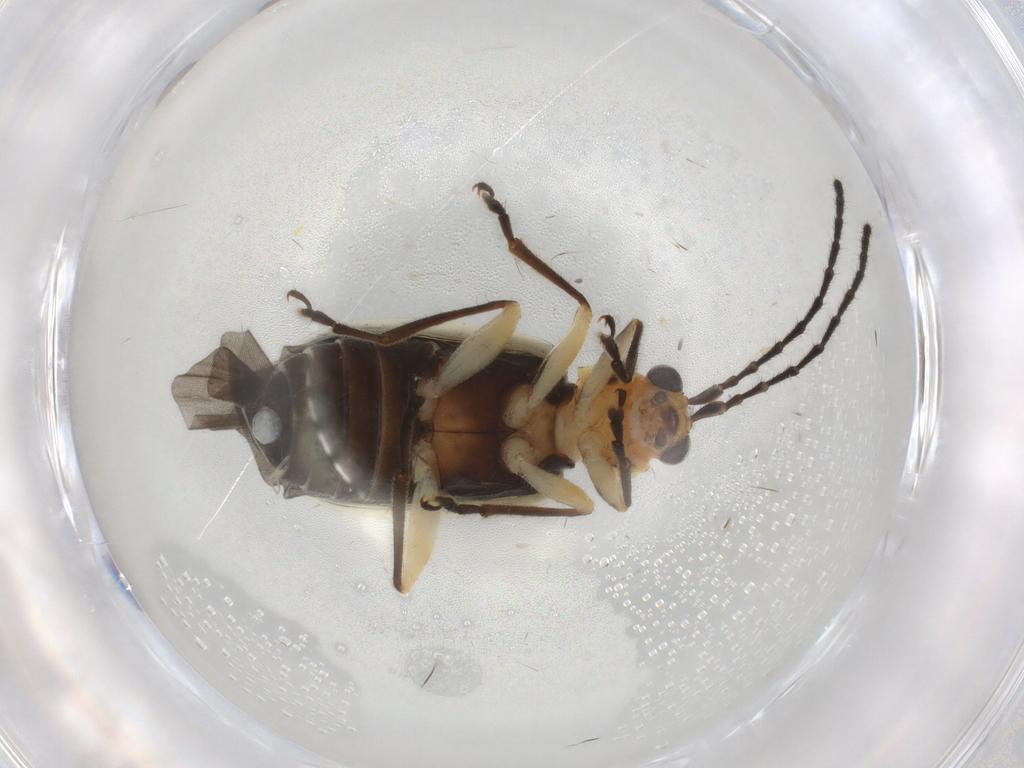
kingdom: Animalia
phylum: Arthropoda
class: Insecta
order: Coleoptera
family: Chrysomelidae
